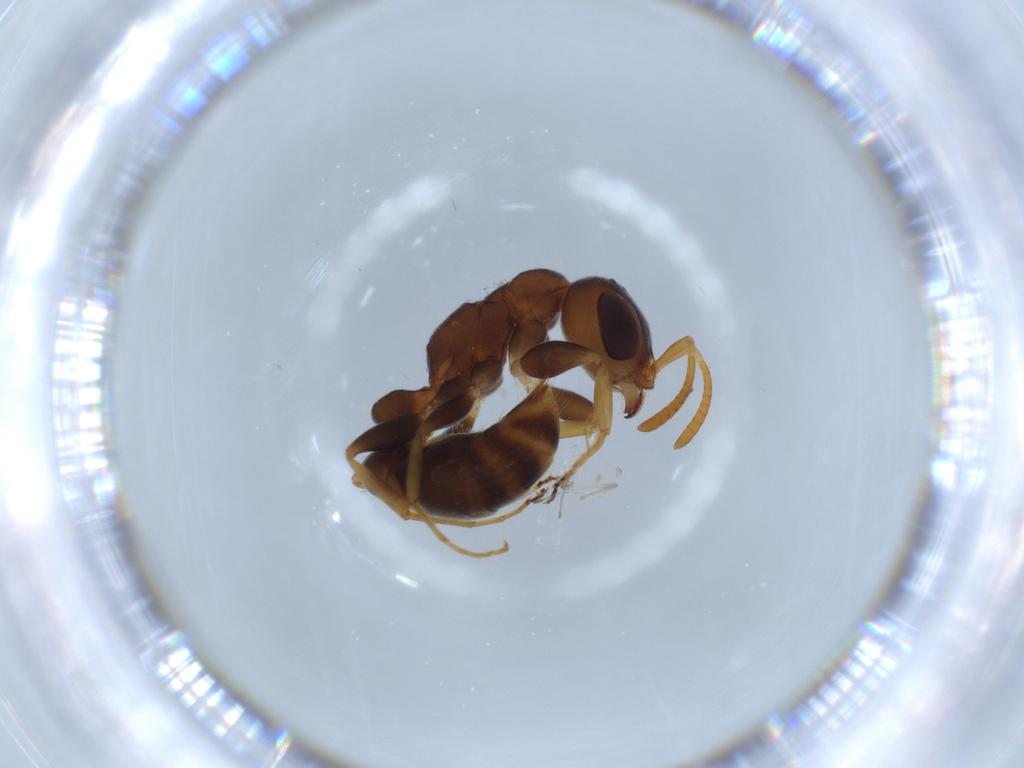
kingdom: Animalia
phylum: Arthropoda
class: Insecta
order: Hymenoptera
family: Formicidae
